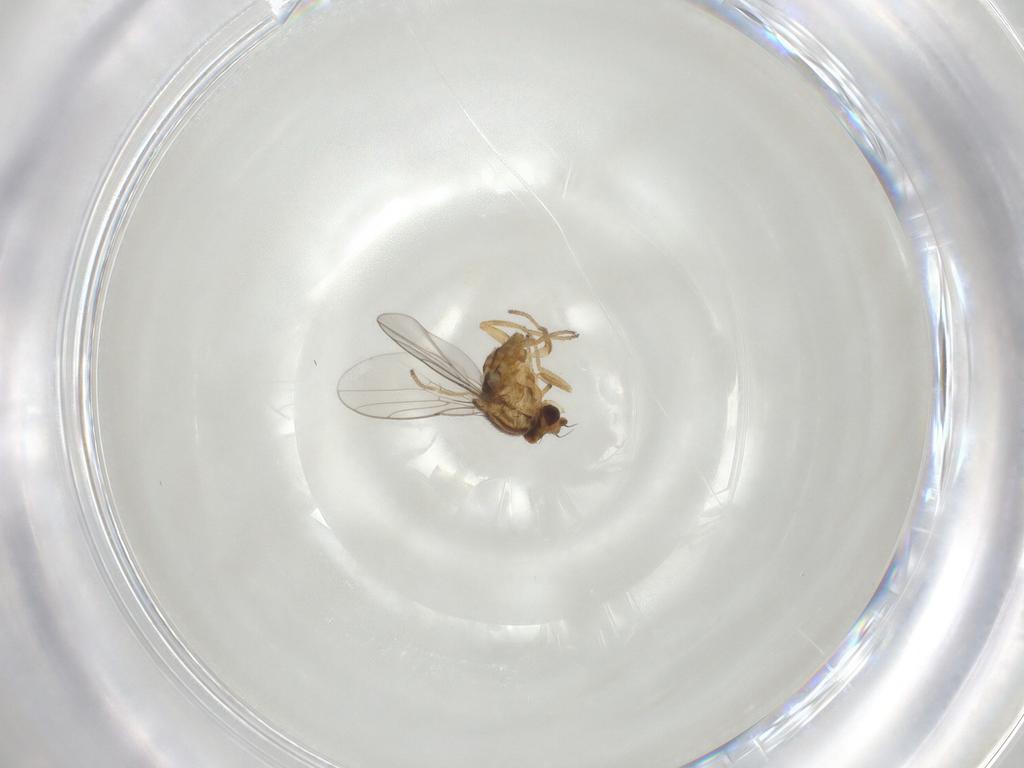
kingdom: Animalia
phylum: Arthropoda
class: Insecta
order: Diptera
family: Chloropidae
